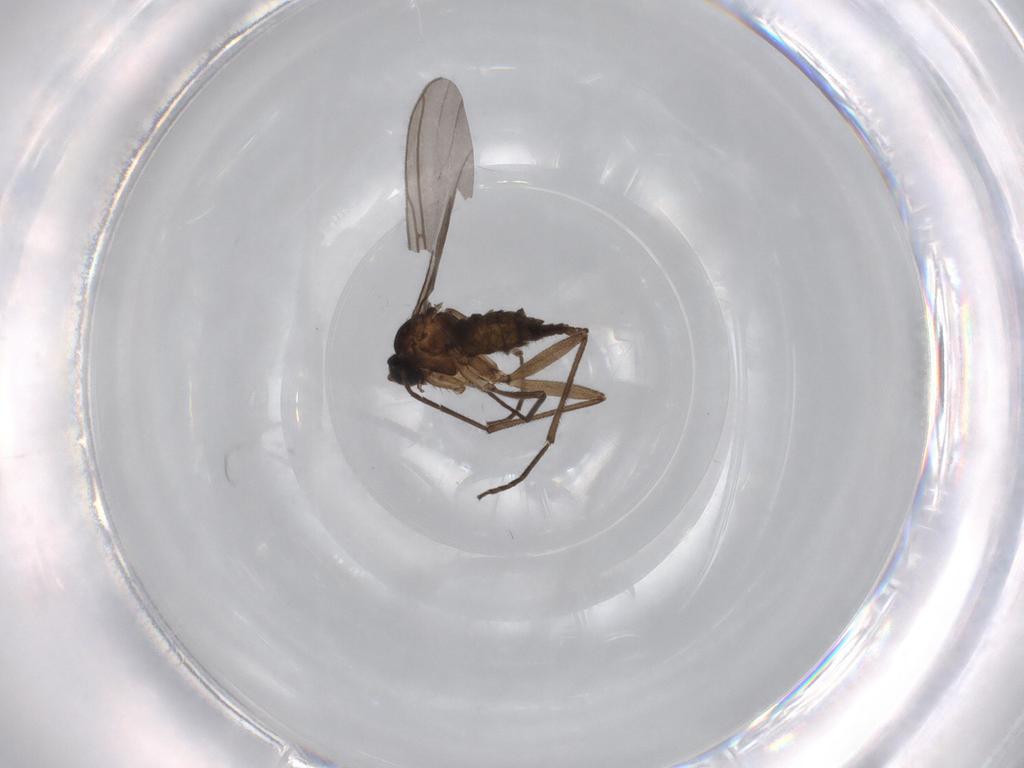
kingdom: Animalia
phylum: Arthropoda
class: Insecta
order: Diptera
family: Sciaridae
